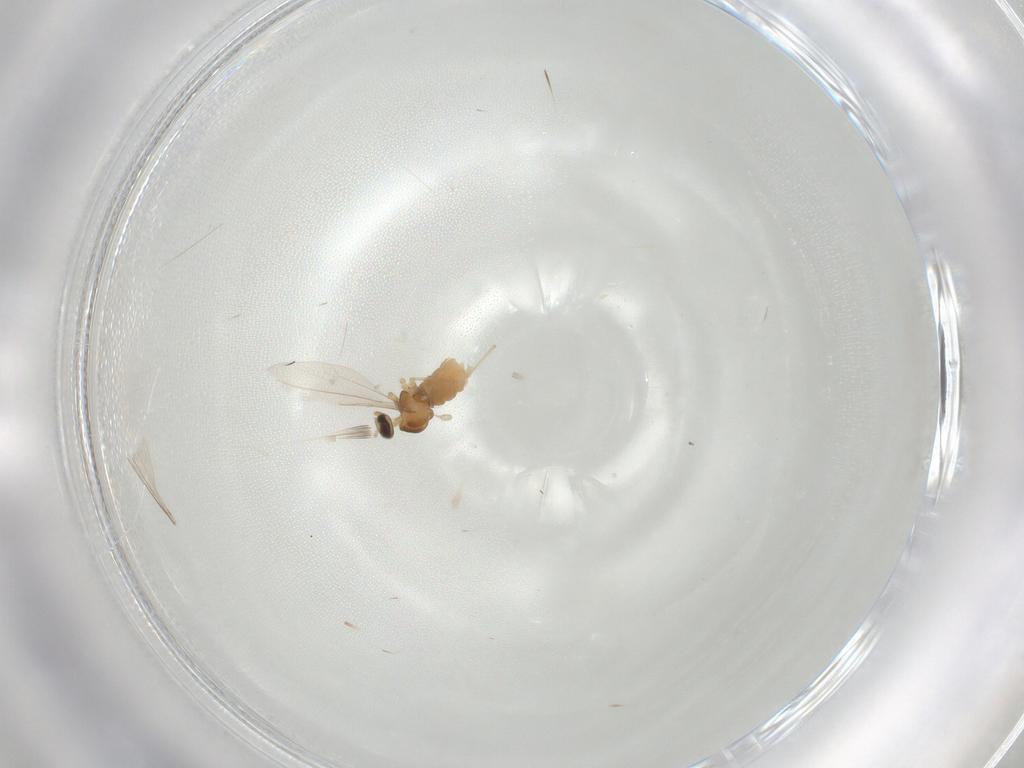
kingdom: Animalia
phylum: Arthropoda
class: Insecta
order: Diptera
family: Cecidomyiidae
